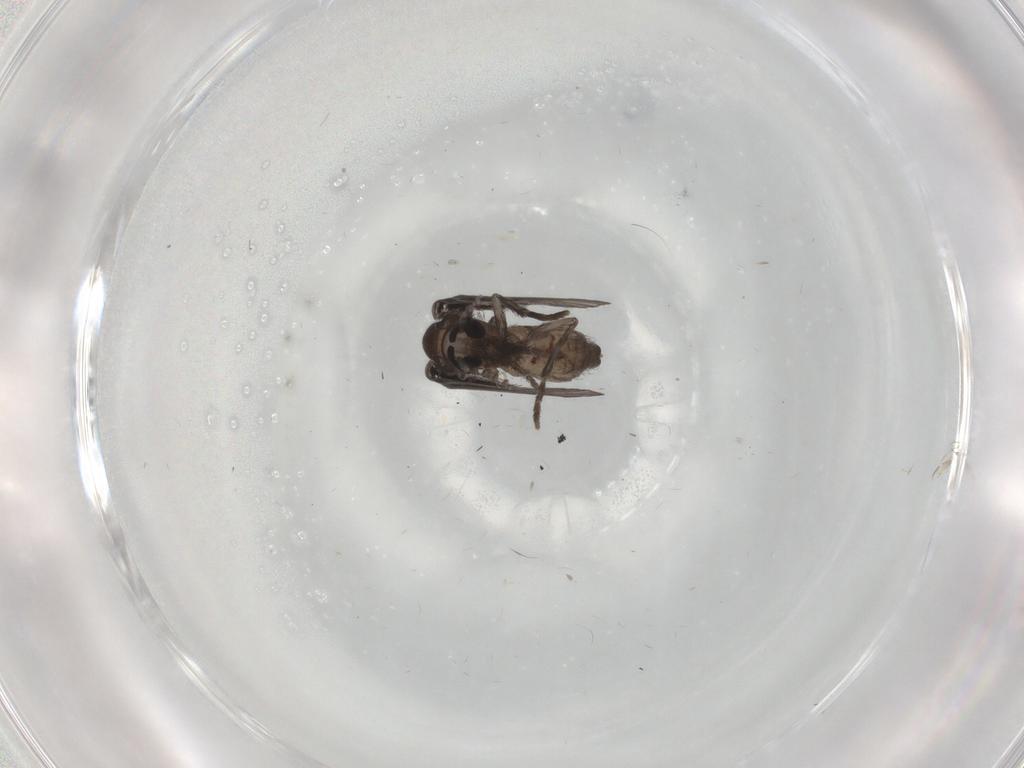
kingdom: Animalia
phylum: Arthropoda
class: Insecta
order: Diptera
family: Psychodidae
